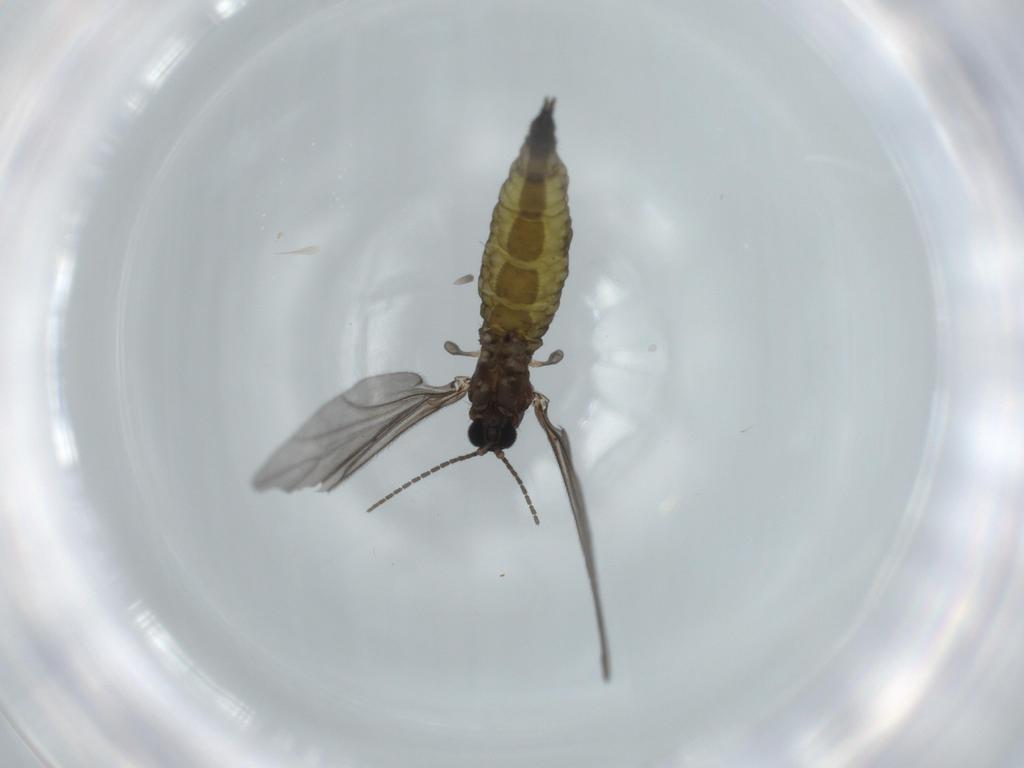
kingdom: Animalia
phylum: Arthropoda
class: Insecta
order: Diptera
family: Sciaridae
